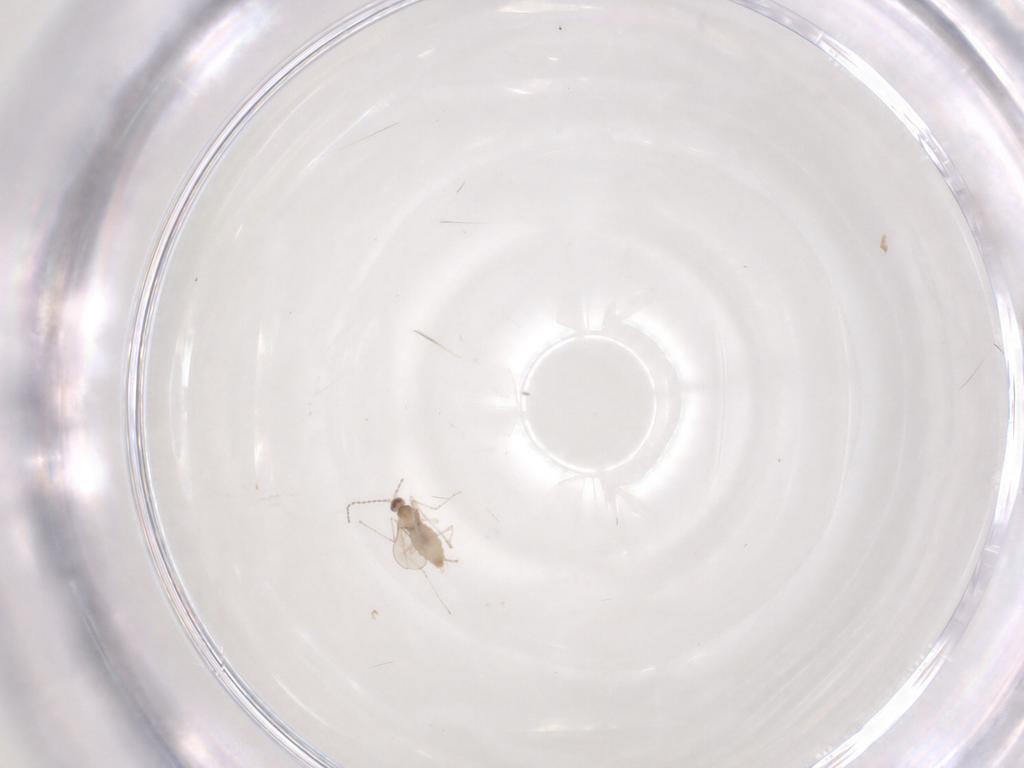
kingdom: Animalia
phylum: Arthropoda
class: Insecta
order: Diptera
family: Cecidomyiidae
